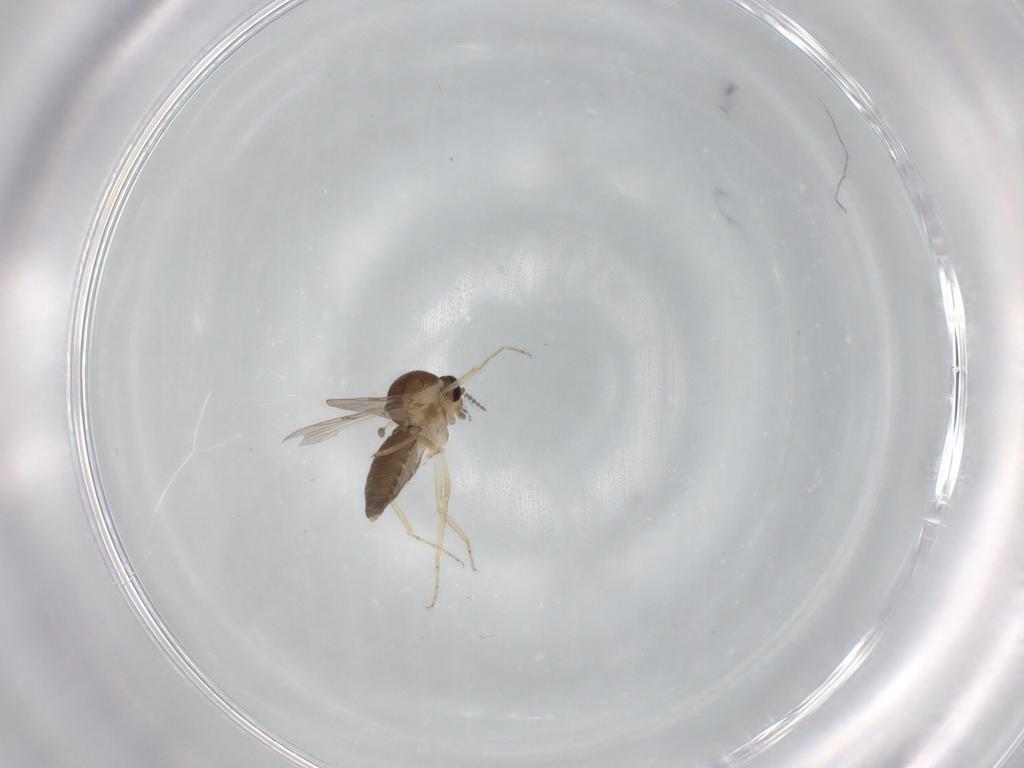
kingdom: Animalia
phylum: Arthropoda
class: Insecta
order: Diptera
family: Ceratopogonidae
